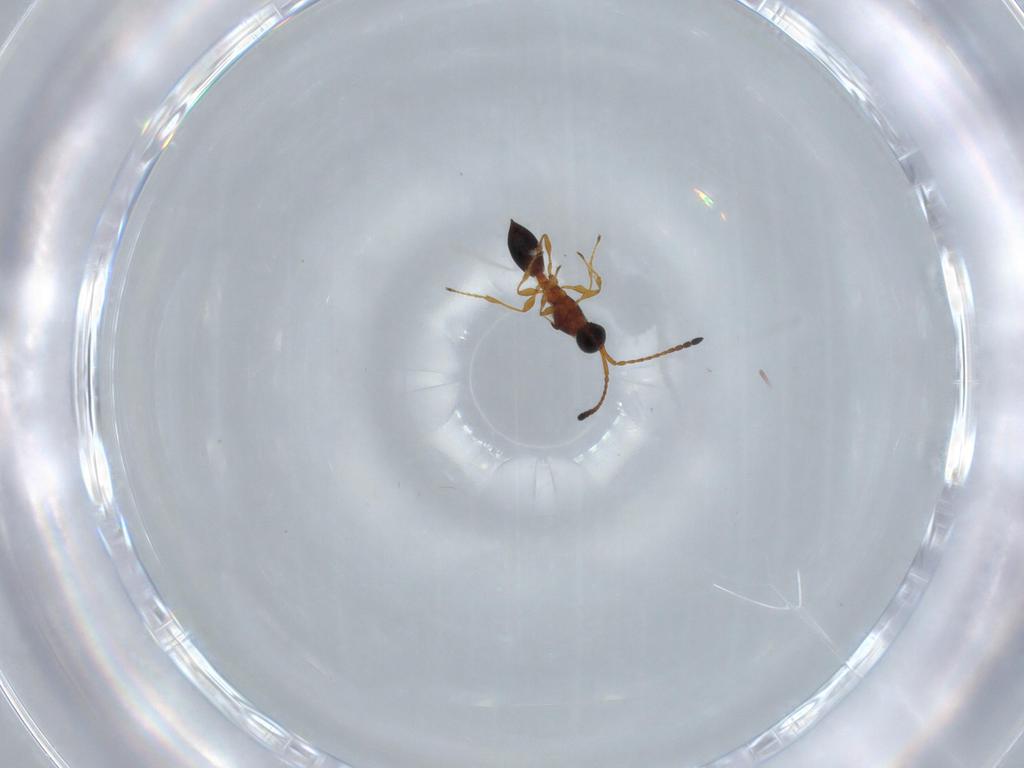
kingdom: Animalia
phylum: Arthropoda
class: Insecta
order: Hymenoptera
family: Diapriidae
